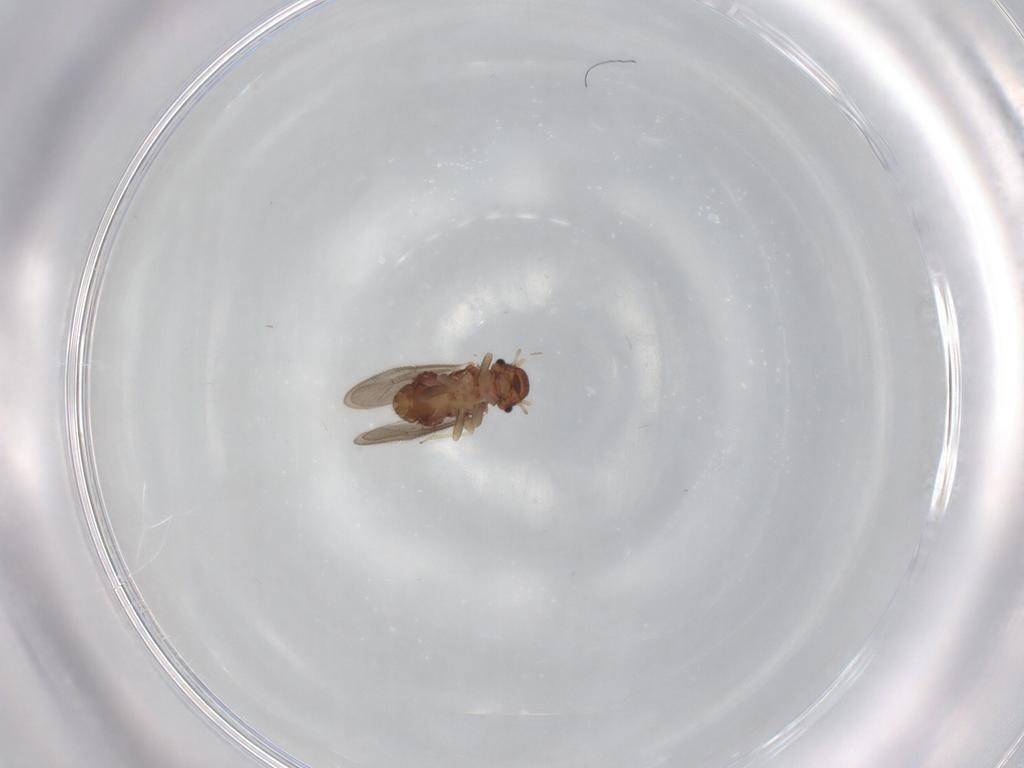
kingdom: Animalia
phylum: Arthropoda
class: Insecta
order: Psocodea
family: Archipsocidae
